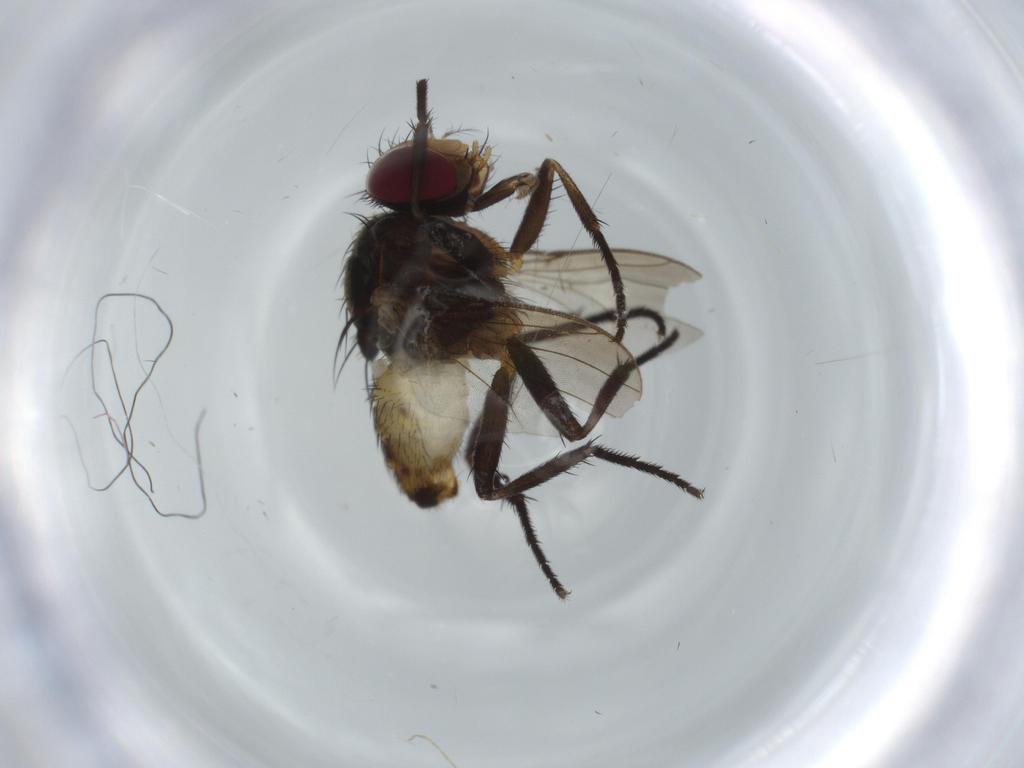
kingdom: Animalia
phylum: Arthropoda
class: Insecta
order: Diptera
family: Anthomyiidae
